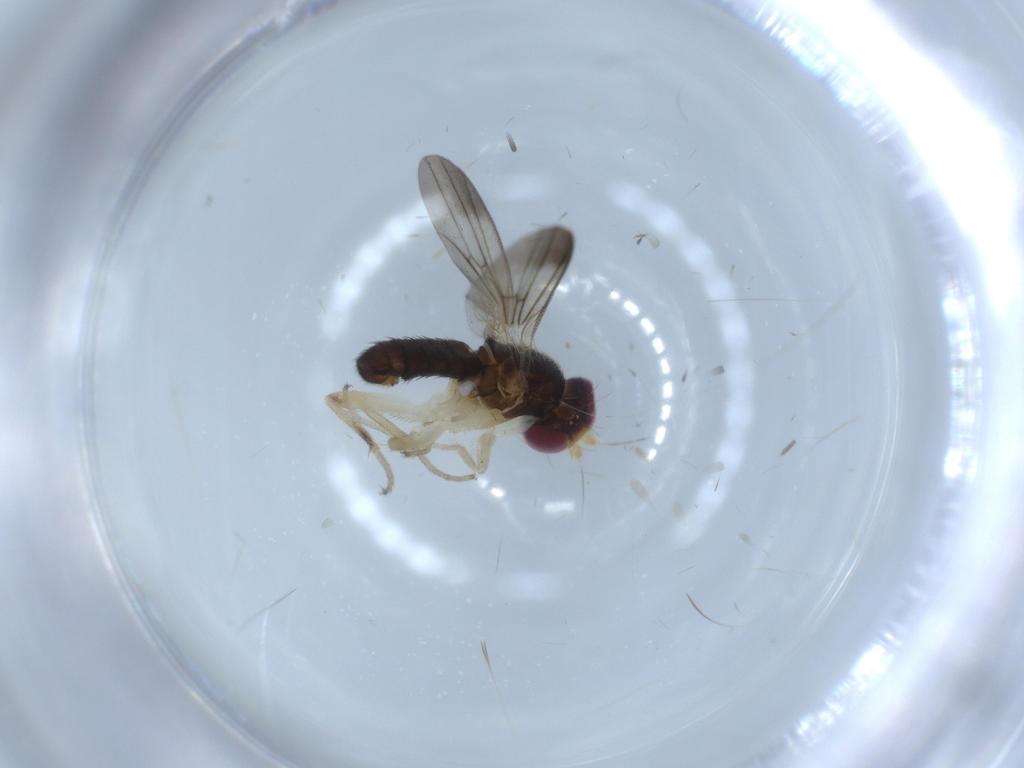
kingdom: Animalia
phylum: Arthropoda
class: Insecta
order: Diptera
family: Clusiidae
